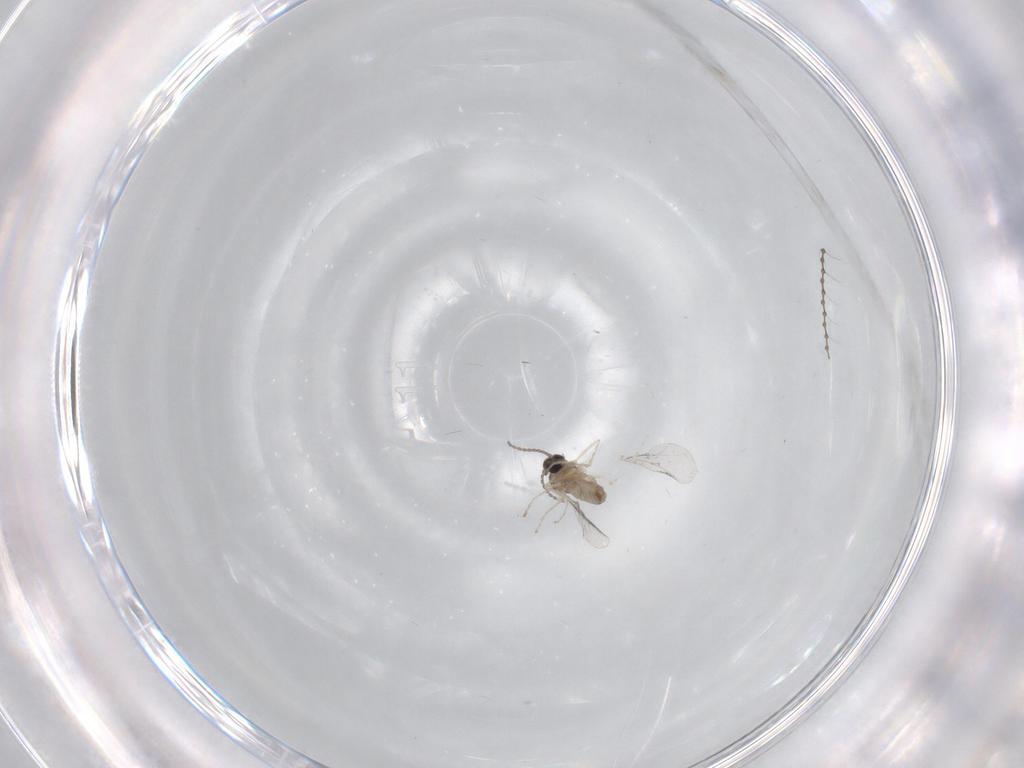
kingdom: Animalia
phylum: Arthropoda
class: Insecta
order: Diptera
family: Cecidomyiidae
